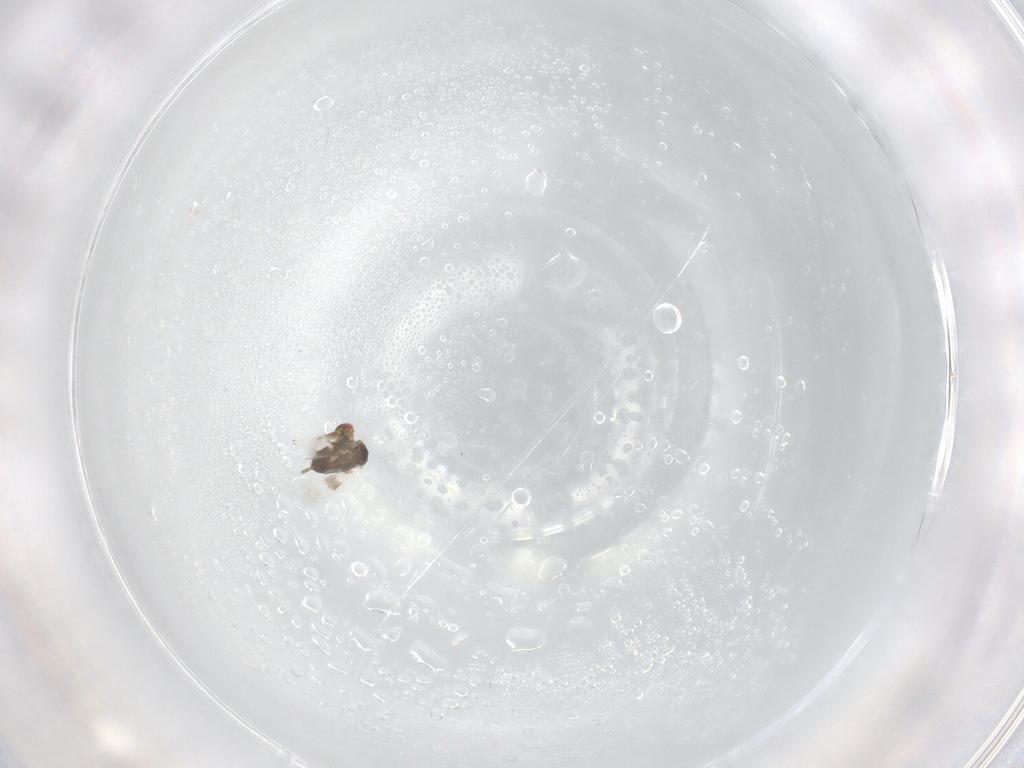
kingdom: Animalia
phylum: Arthropoda
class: Insecta
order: Hymenoptera
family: Azotidae
